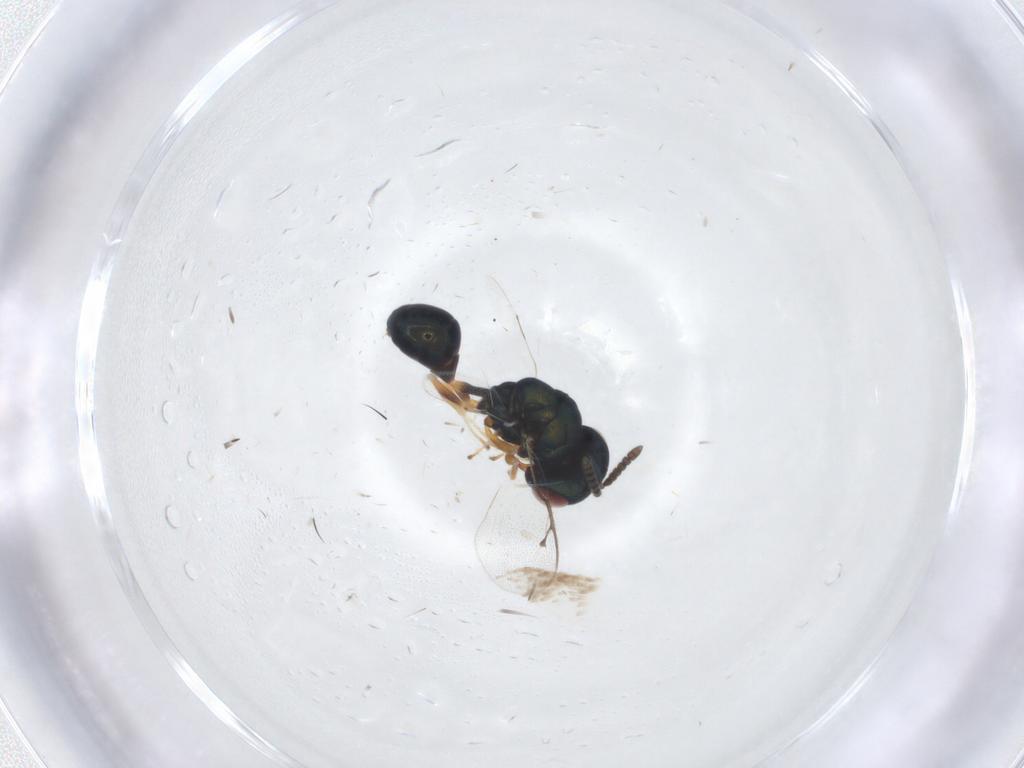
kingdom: Animalia
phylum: Arthropoda
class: Insecta
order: Hymenoptera
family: Pteromalidae
